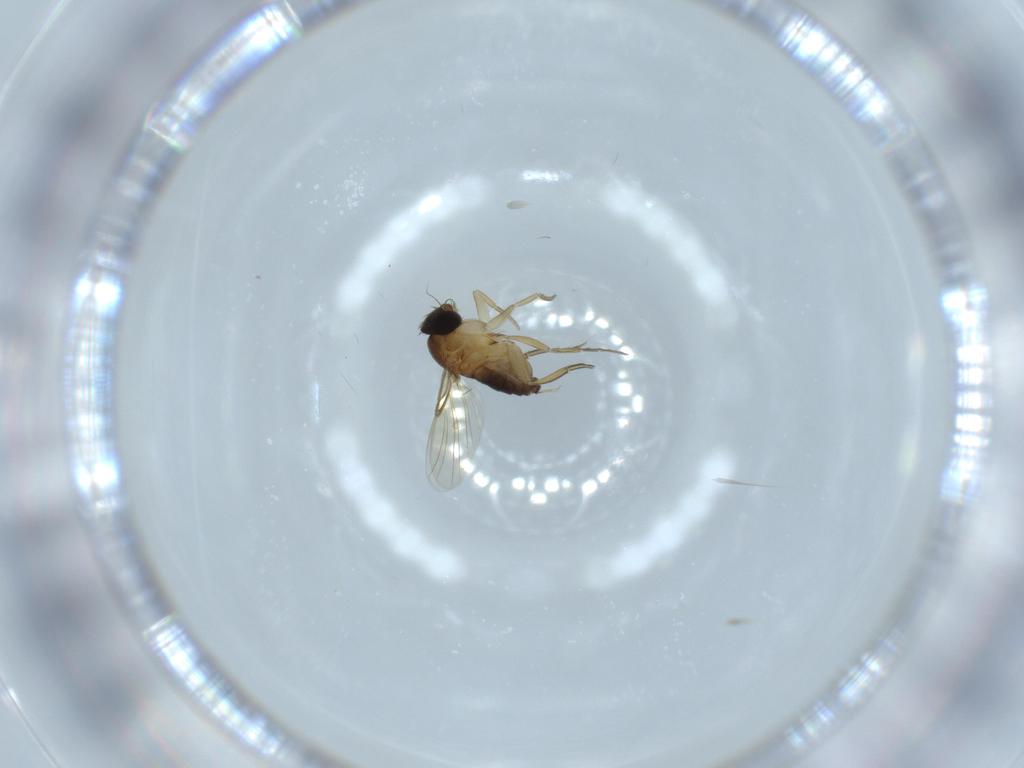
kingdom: Animalia
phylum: Arthropoda
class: Insecta
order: Diptera
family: Phoridae
